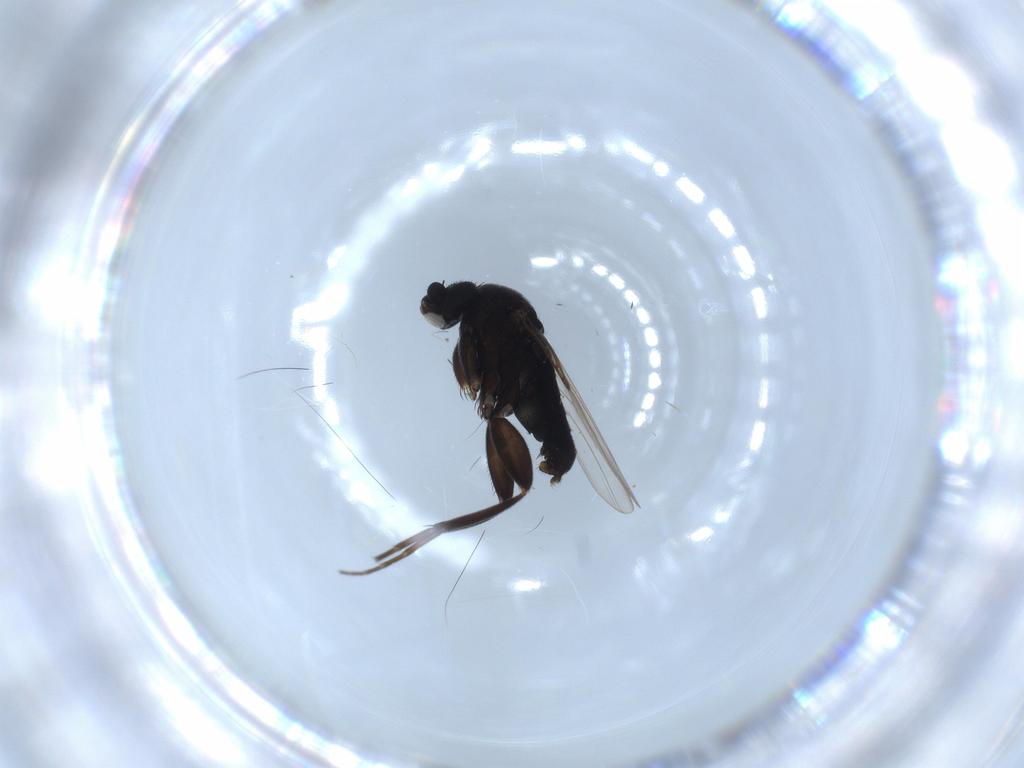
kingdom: Animalia
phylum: Arthropoda
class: Insecta
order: Diptera
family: Phoridae
